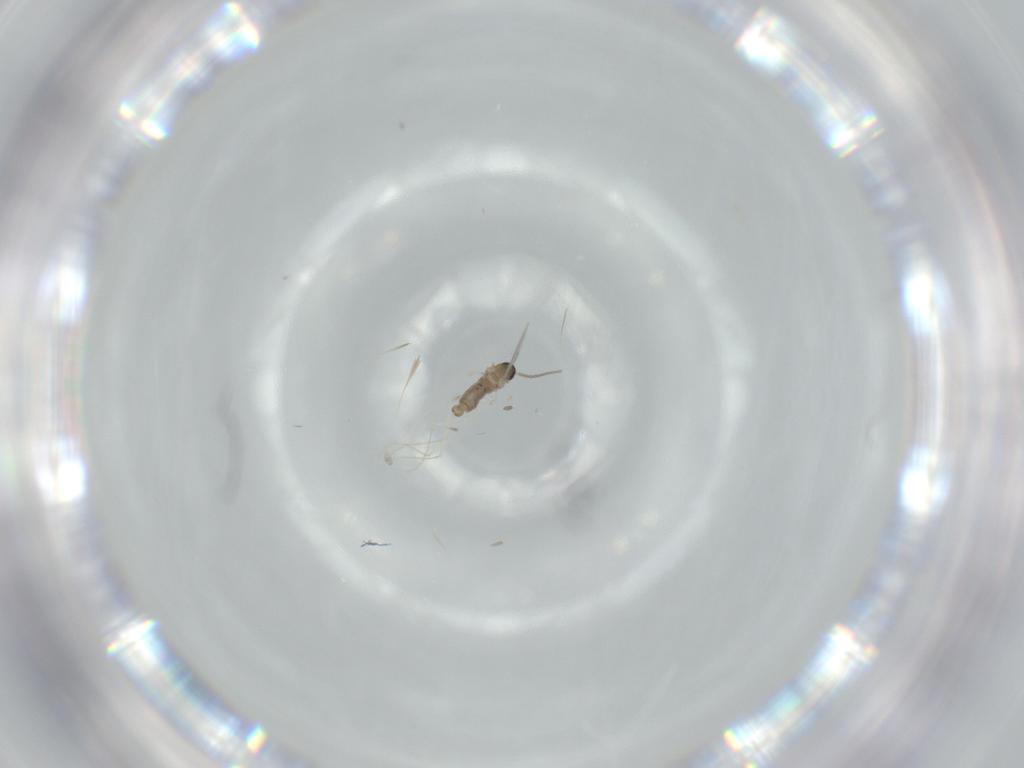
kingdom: Animalia
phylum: Arthropoda
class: Insecta
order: Diptera
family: Cecidomyiidae
